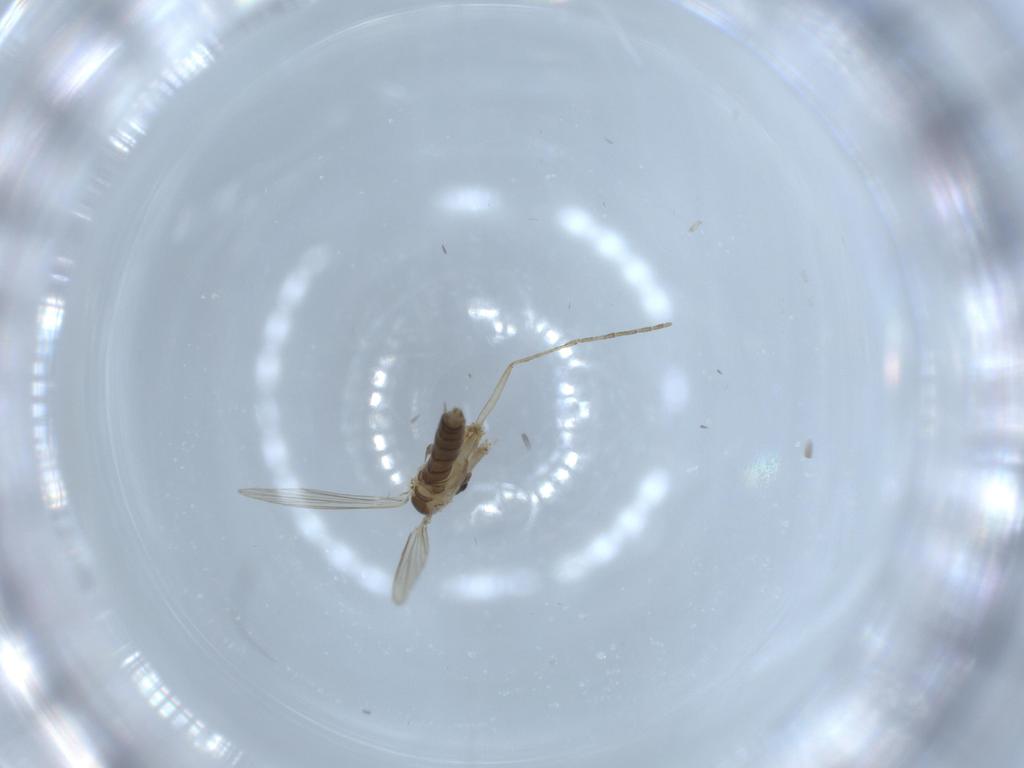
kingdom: Animalia
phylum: Arthropoda
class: Insecta
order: Diptera
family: Psychodidae
